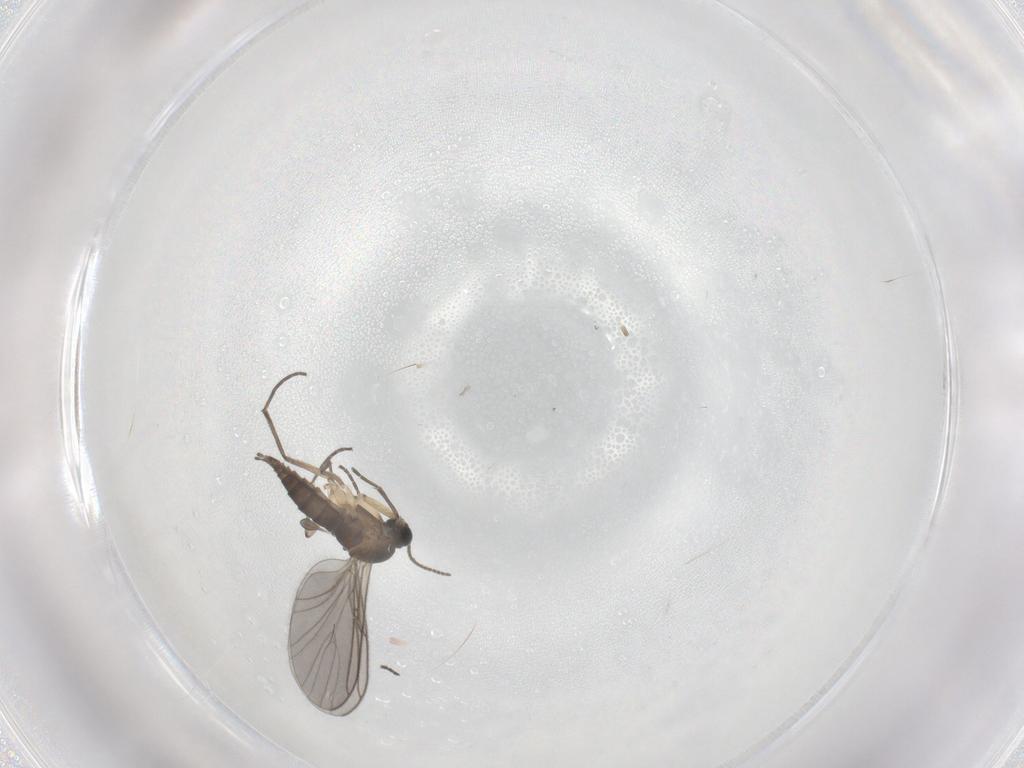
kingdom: Animalia
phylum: Arthropoda
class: Insecta
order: Diptera
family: Sciaridae
